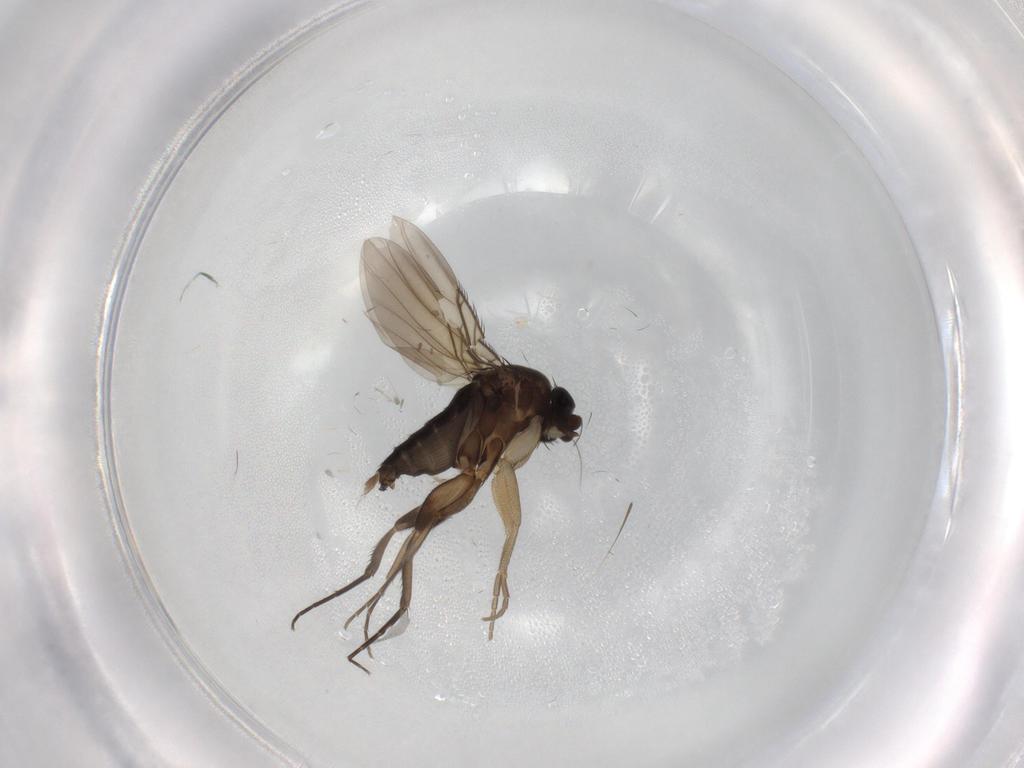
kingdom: Animalia
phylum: Arthropoda
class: Insecta
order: Diptera
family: Phoridae
